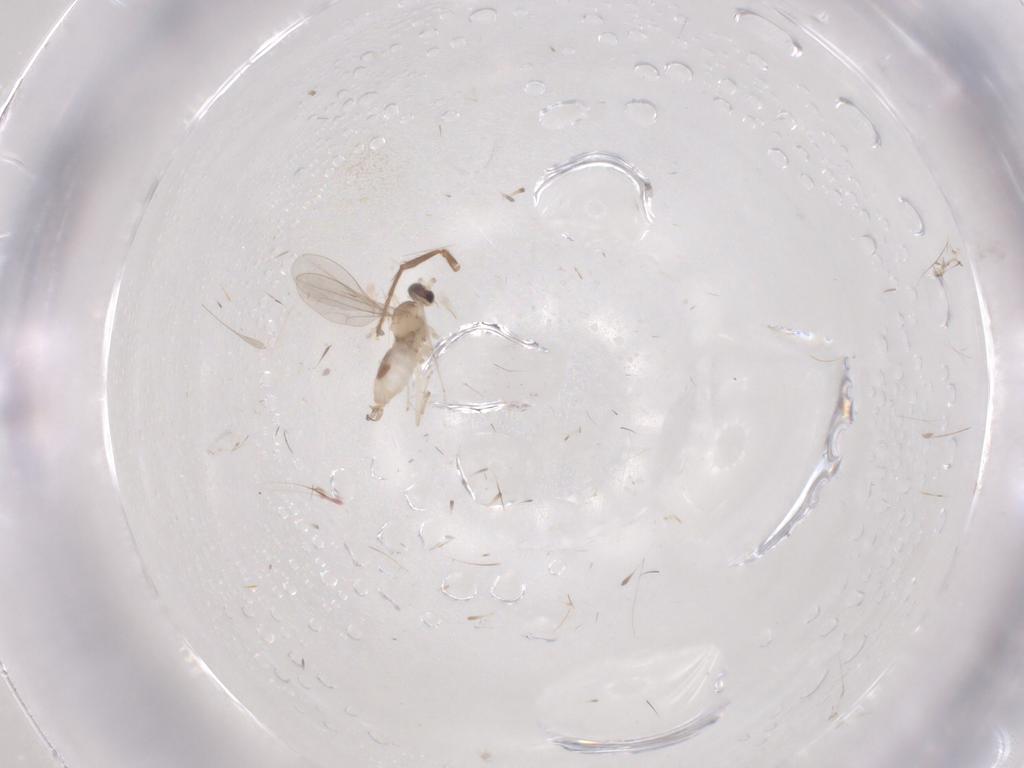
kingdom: Animalia
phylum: Arthropoda
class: Insecta
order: Diptera
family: Cecidomyiidae
